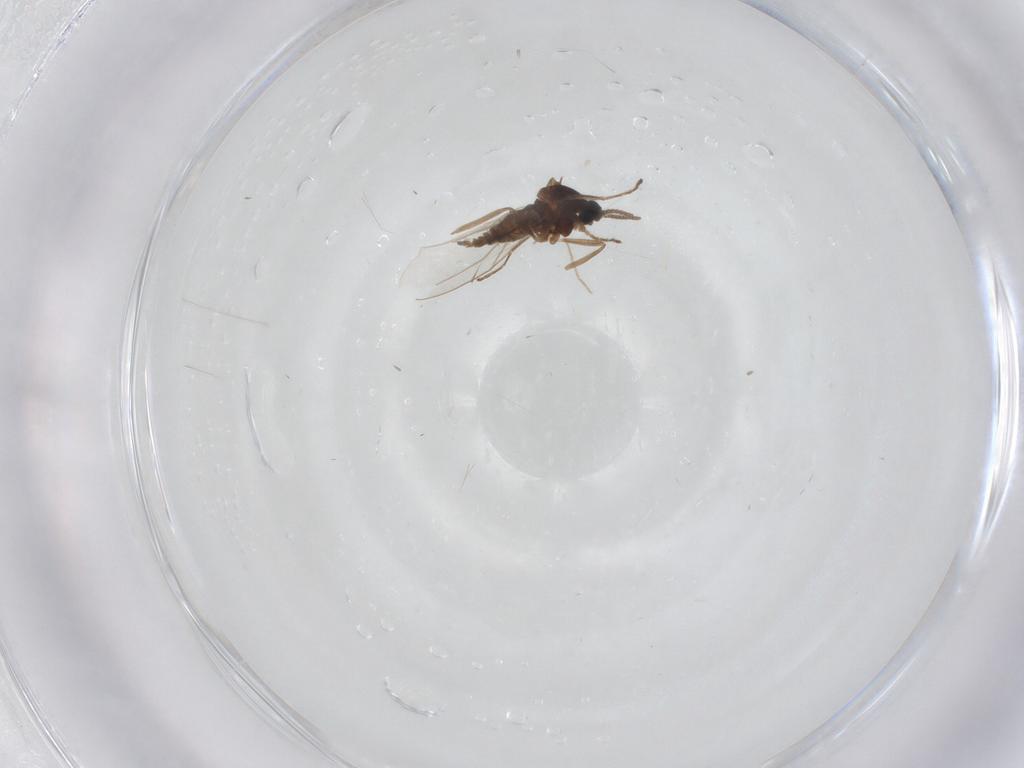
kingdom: Animalia
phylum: Arthropoda
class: Insecta
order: Diptera
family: Cecidomyiidae
